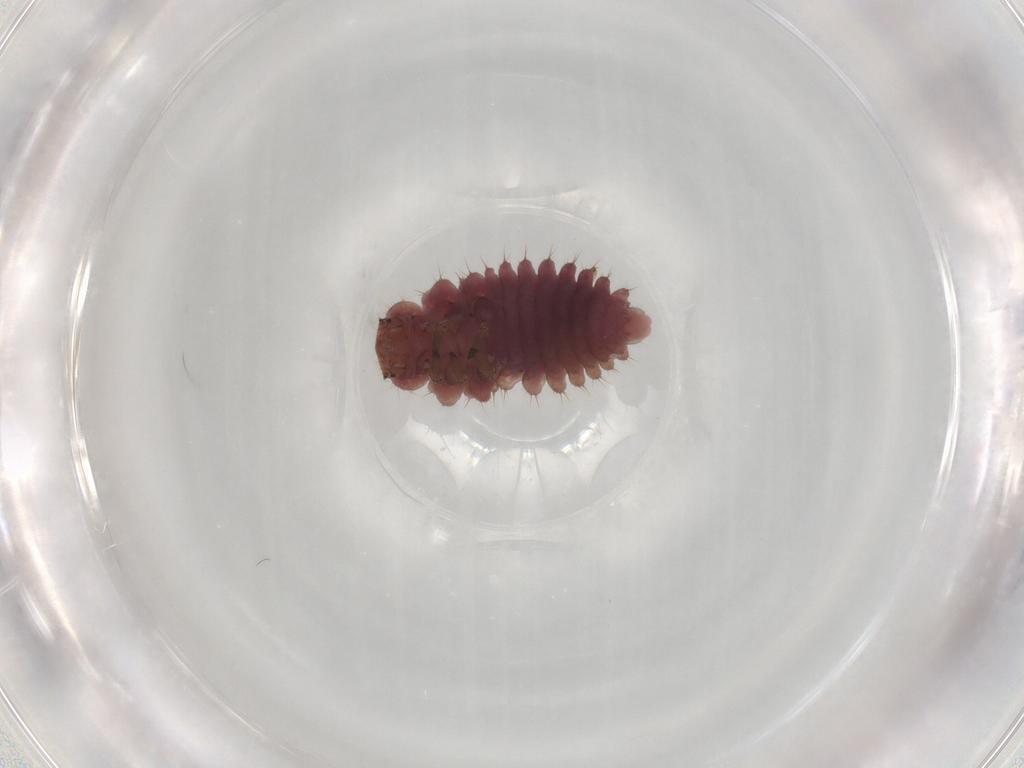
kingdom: Animalia
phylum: Arthropoda
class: Insecta
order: Coleoptera
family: Coccinellidae
